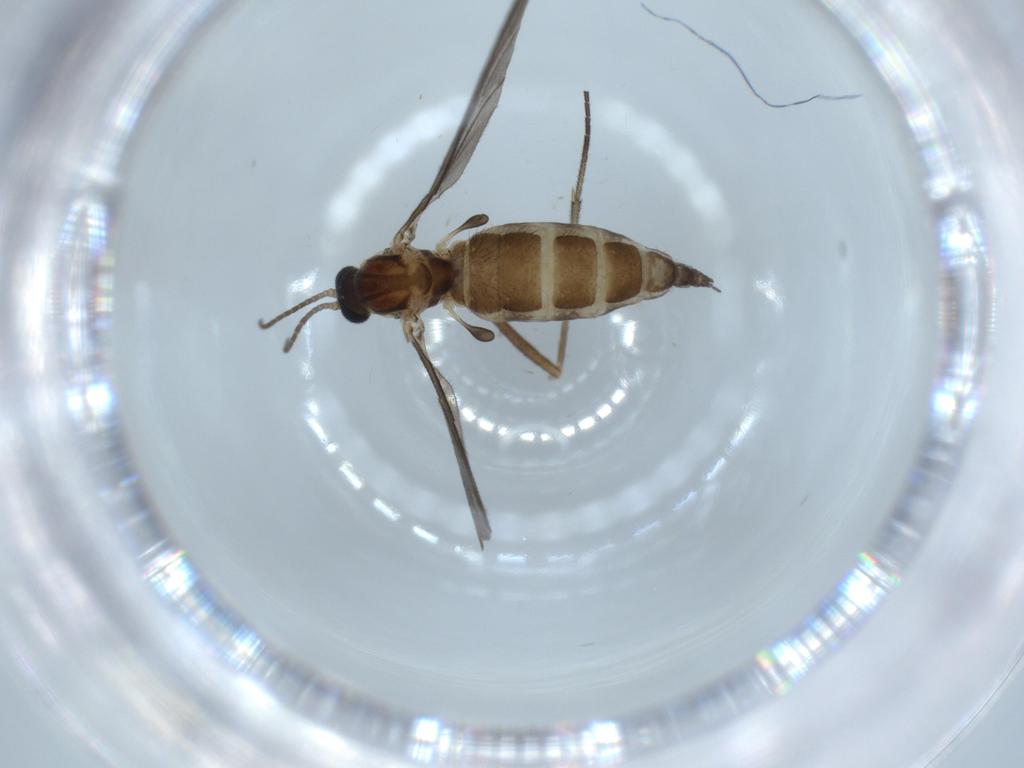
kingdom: Animalia
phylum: Arthropoda
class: Insecta
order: Diptera
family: Sciaridae
